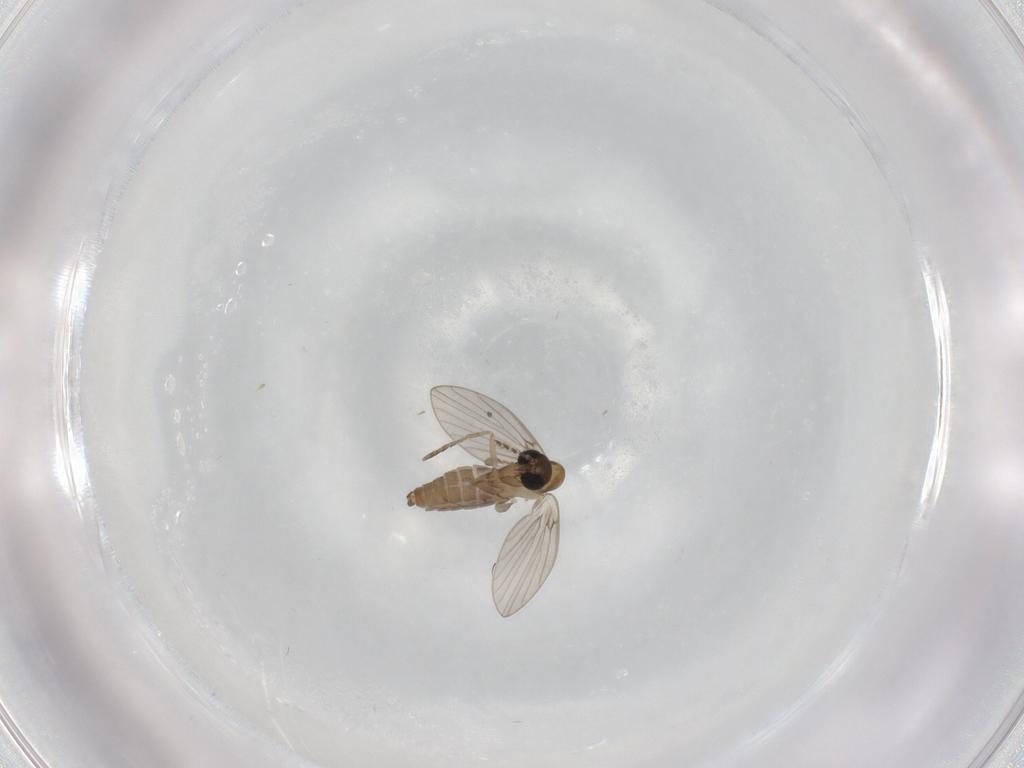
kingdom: Animalia
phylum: Arthropoda
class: Insecta
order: Diptera
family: Psychodidae
